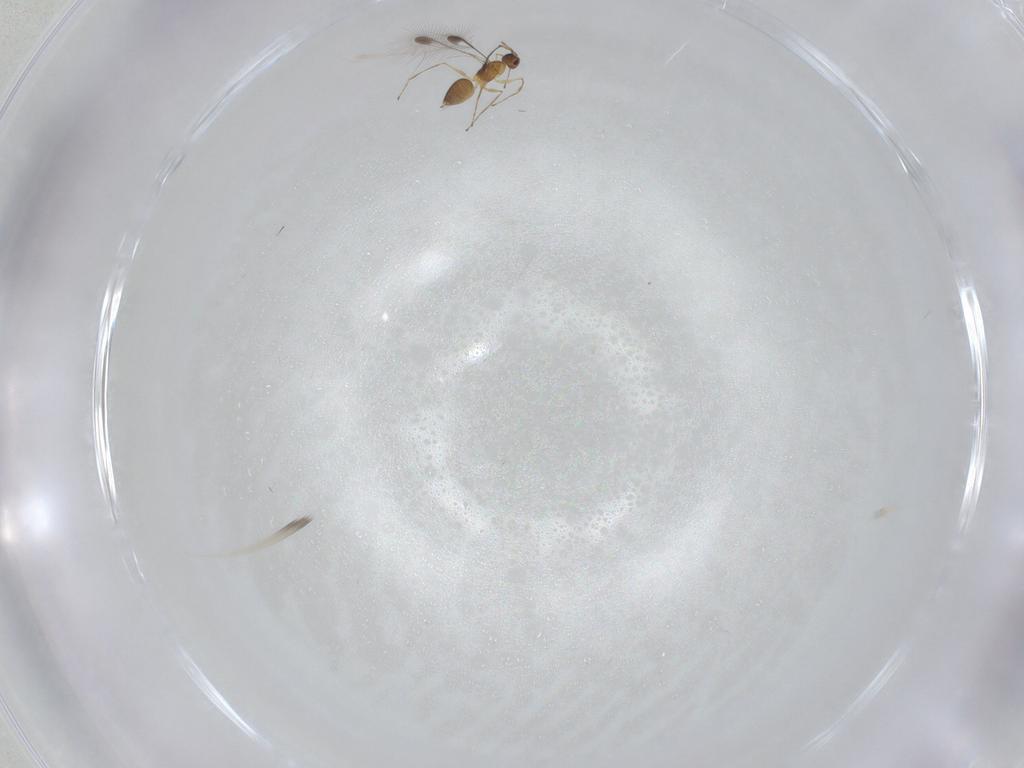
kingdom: Animalia
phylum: Arthropoda
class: Insecta
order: Hymenoptera
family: Mymaridae
